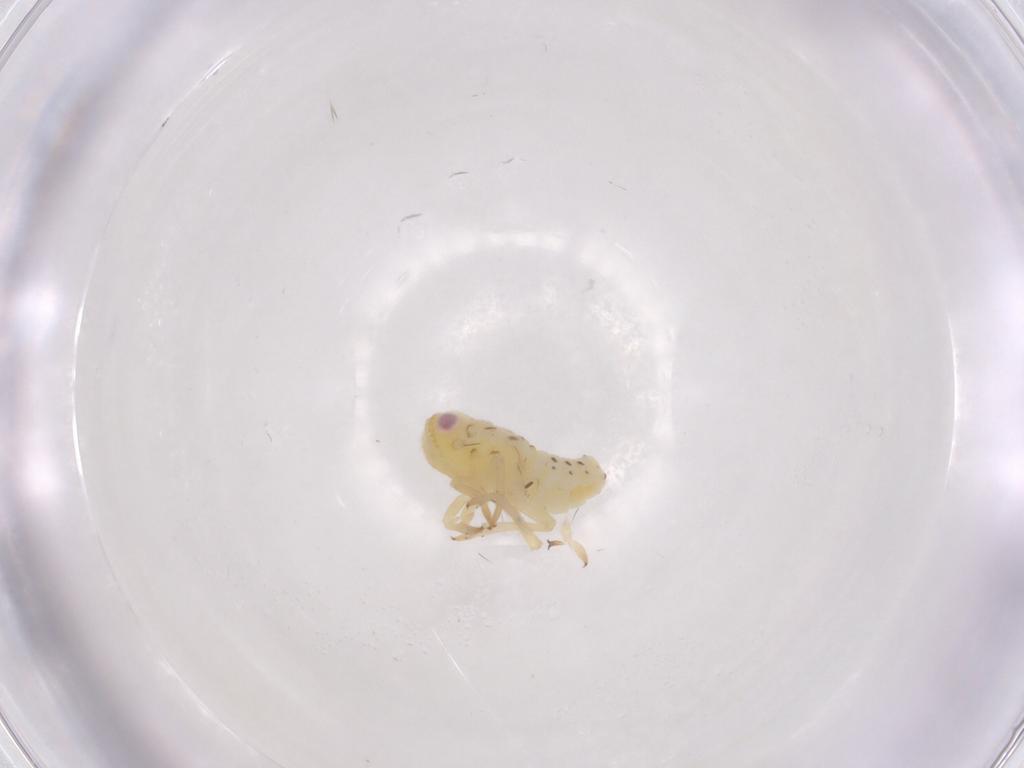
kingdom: Animalia
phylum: Arthropoda
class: Insecta
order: Hemiptera
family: Tropiduchidae
